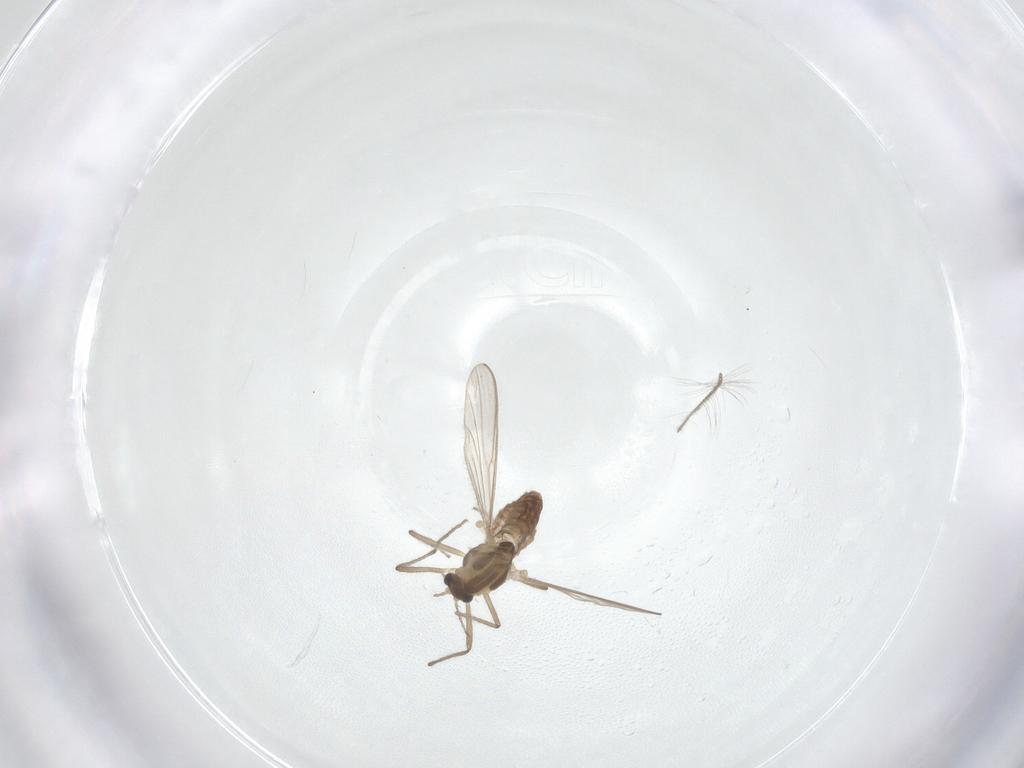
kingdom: Animalia
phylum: Arthropoda
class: Insecta
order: Diptera
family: Chironomidae
